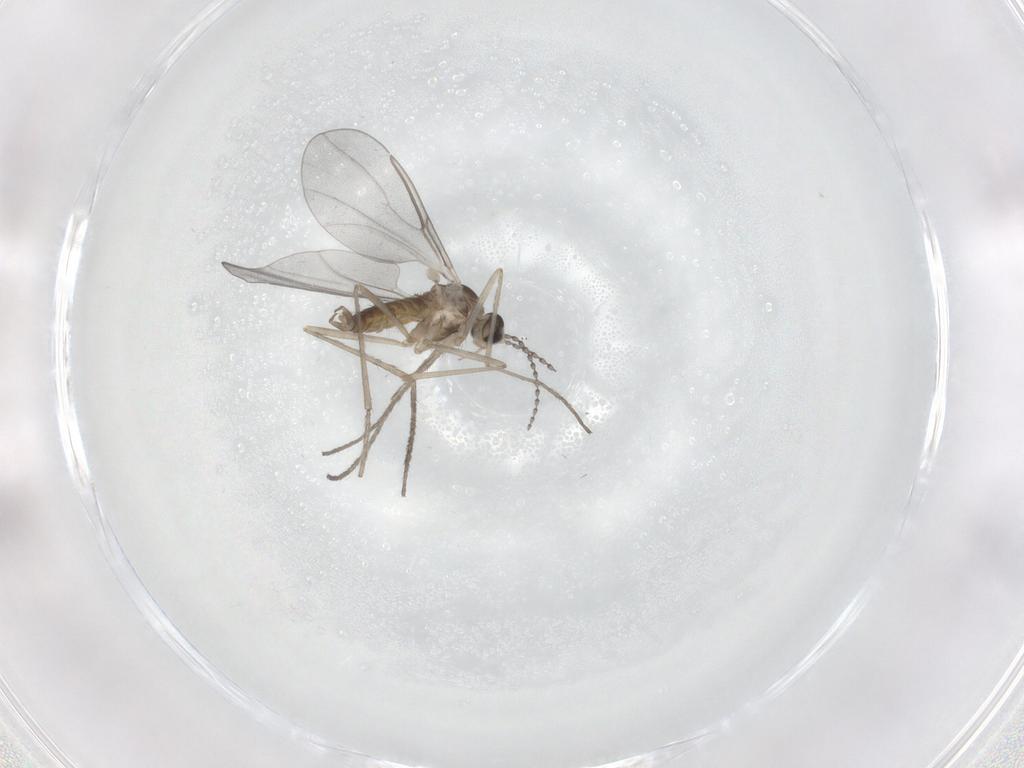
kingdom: Animalia
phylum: Arthropoda
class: Insecta
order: Diptera
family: Cecidomyiidae
